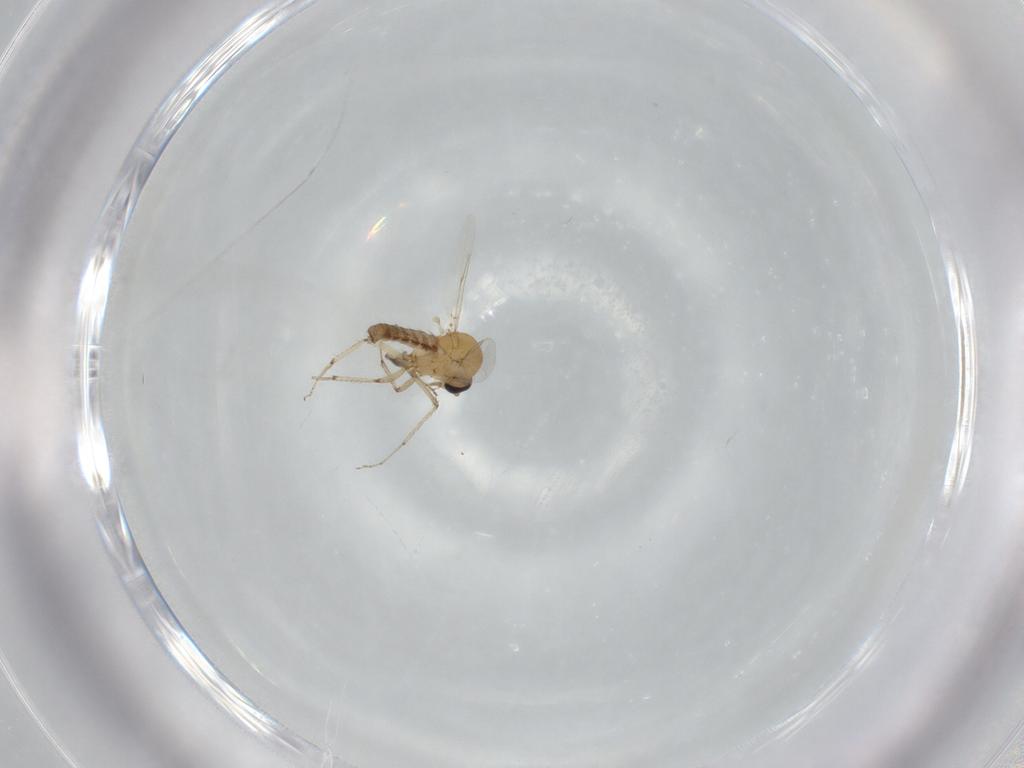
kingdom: Animalia
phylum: Arthropoda
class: Insecta
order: Diptera
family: Ceratopogonidae
